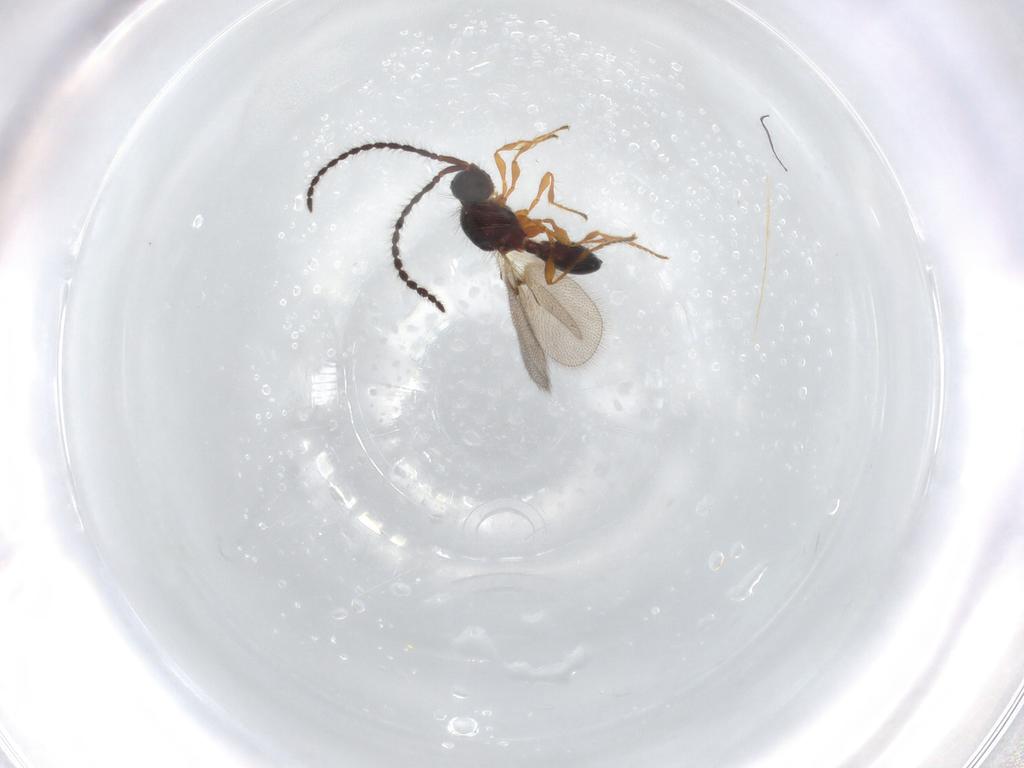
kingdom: Animalia
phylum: Arthropoda
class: Insecta
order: Hymenoptera
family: Diapriidae
